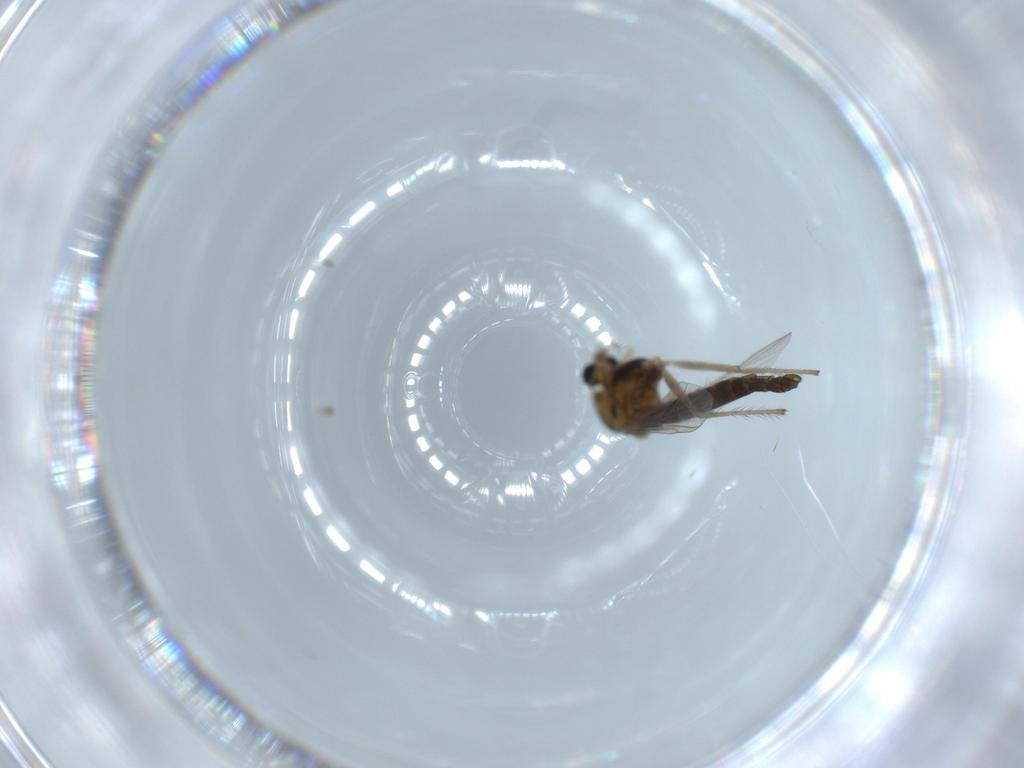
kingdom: Animalia
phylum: Arthropoda
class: Insecta
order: Diptera
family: Chironomidae
